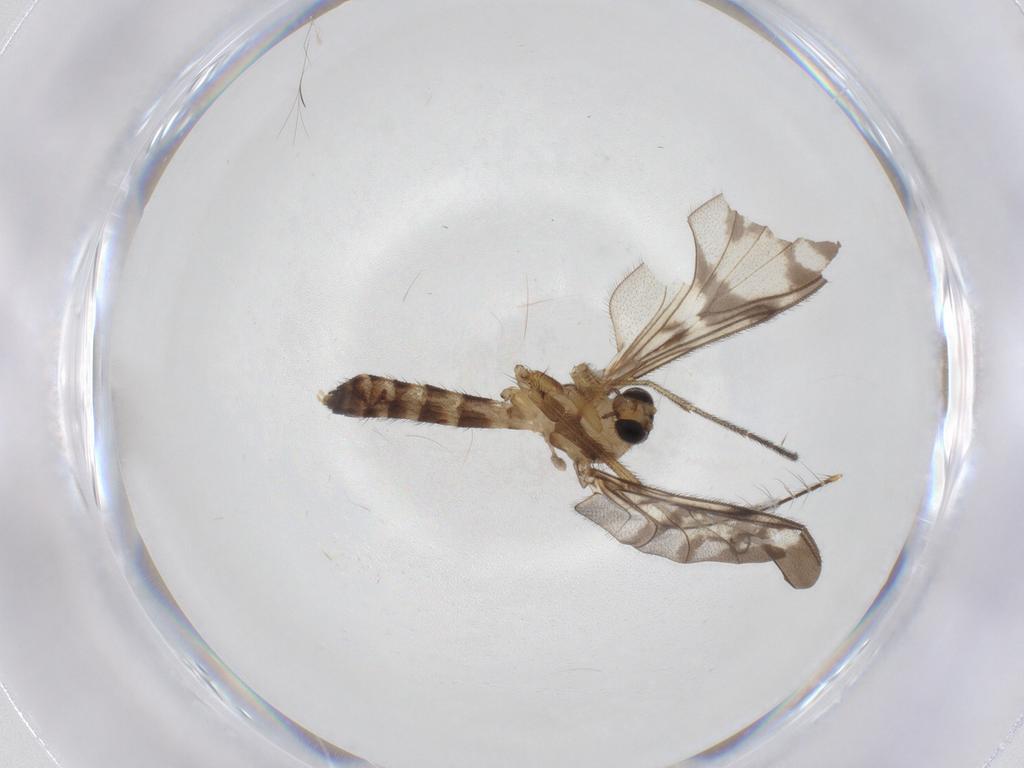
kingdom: Animalia
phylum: Arthropoda
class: Insecta
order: Diptera
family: Keroplatidae
